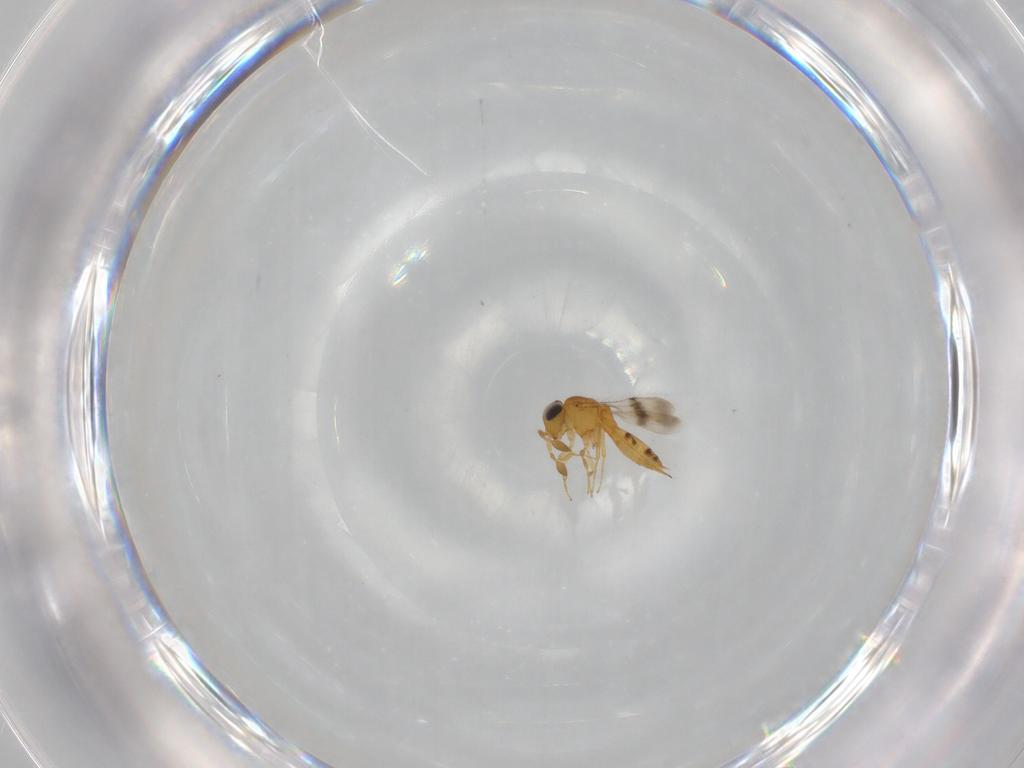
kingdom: Animalia
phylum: Arthropoda
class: Insecta
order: Hymenoptera
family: Scelionidae
